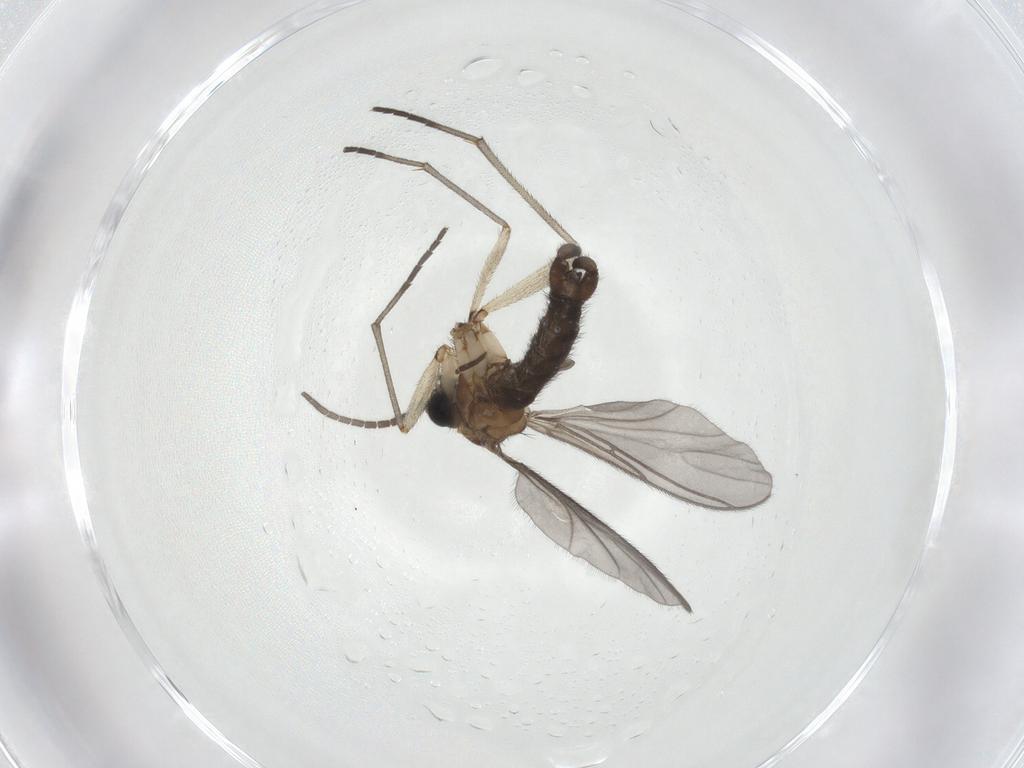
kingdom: Animalia
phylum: Arthropoda
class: Insecta
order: Diptera
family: Sciaridae
